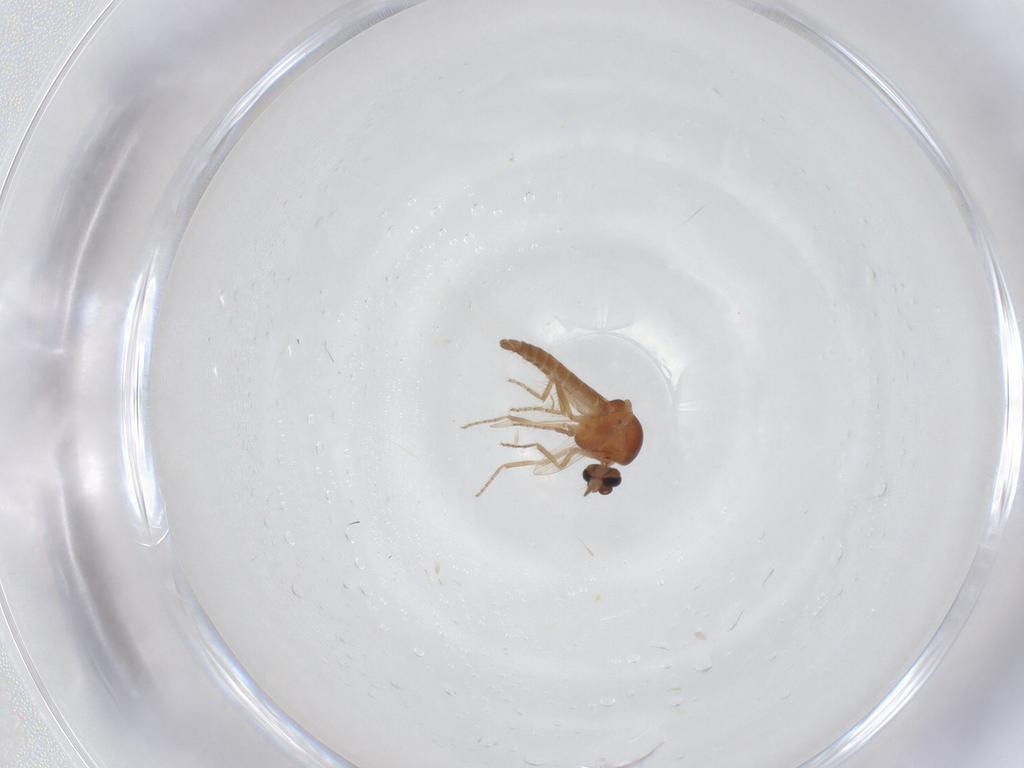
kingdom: Animalia
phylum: Arthropoda
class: Insecta
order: Diptera
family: Ceratopogonidae
